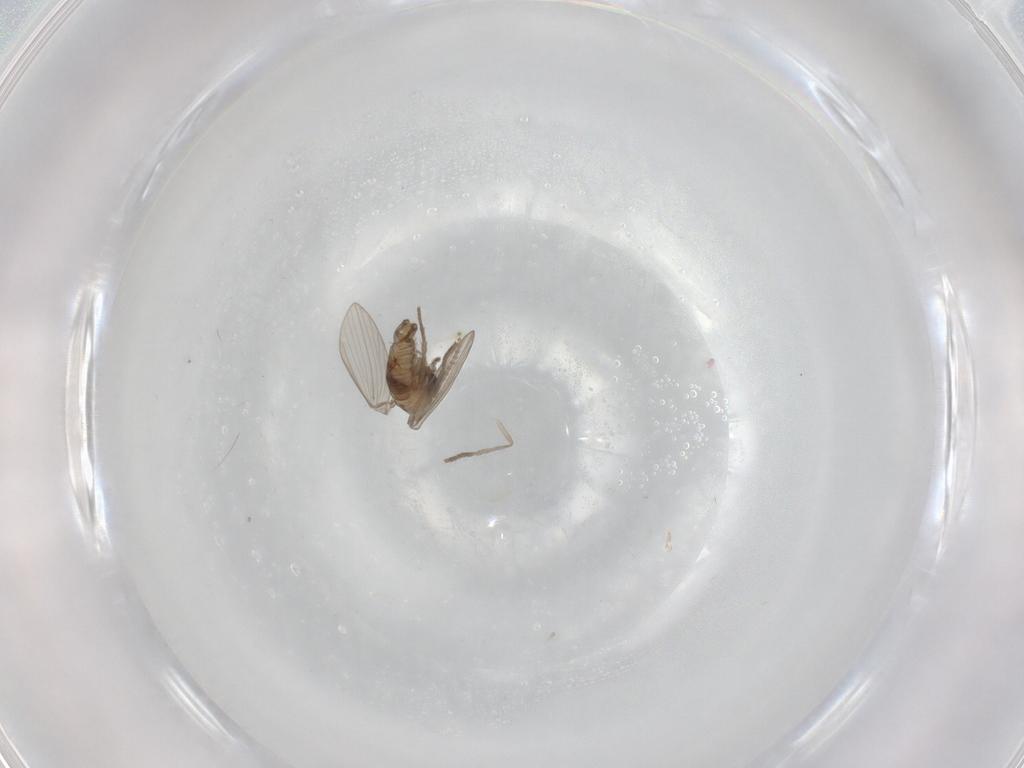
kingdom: Animalia
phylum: Arthropoda
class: Insecta
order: Diptera
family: Psychodidae
